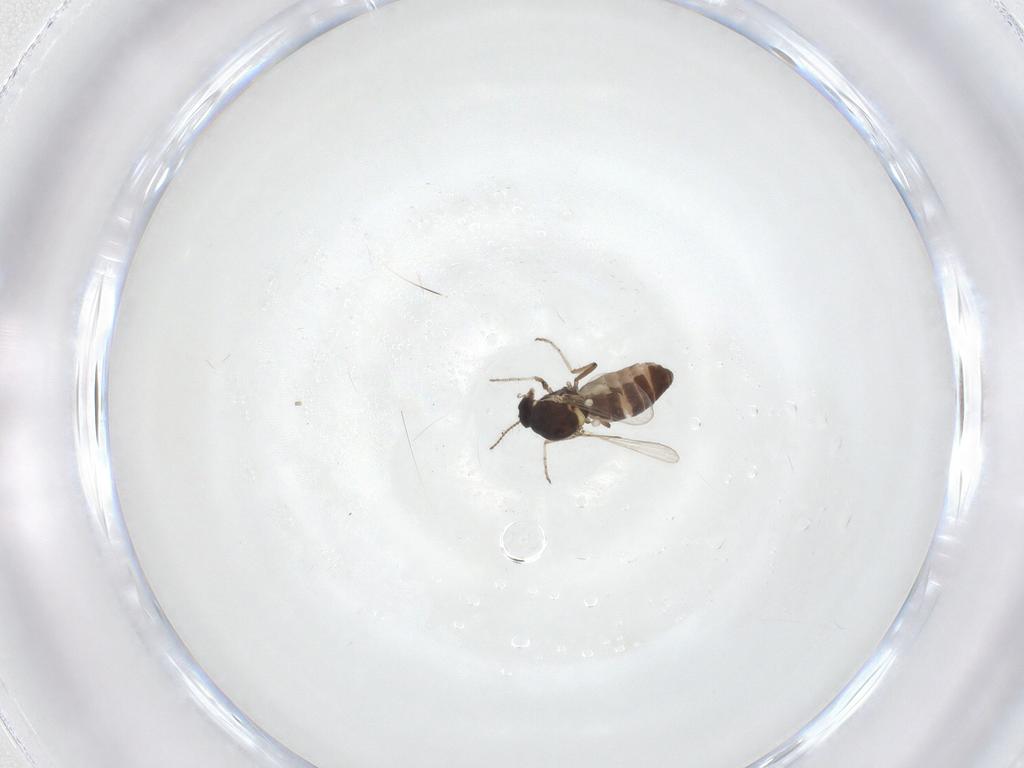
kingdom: Animalia
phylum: Arthropoda
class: Insecta
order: Diptera
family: Ceratopogonidae
